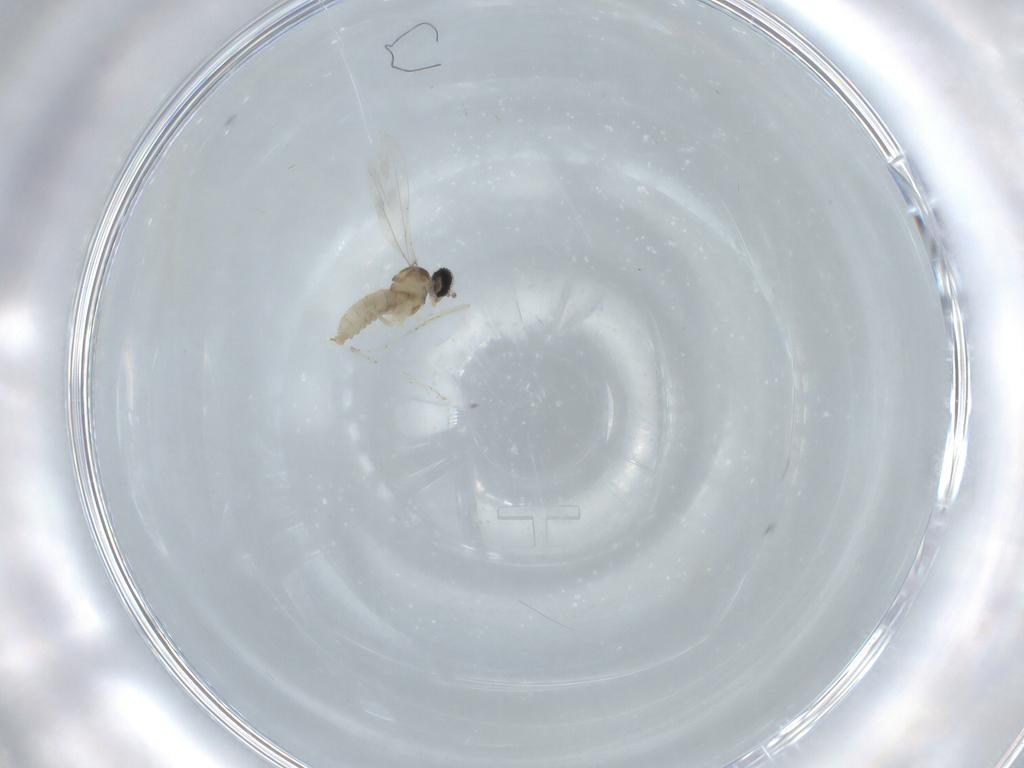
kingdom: Animalia
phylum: Arthropoda
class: Insecta
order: Diptera
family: Cecidomyiidae
